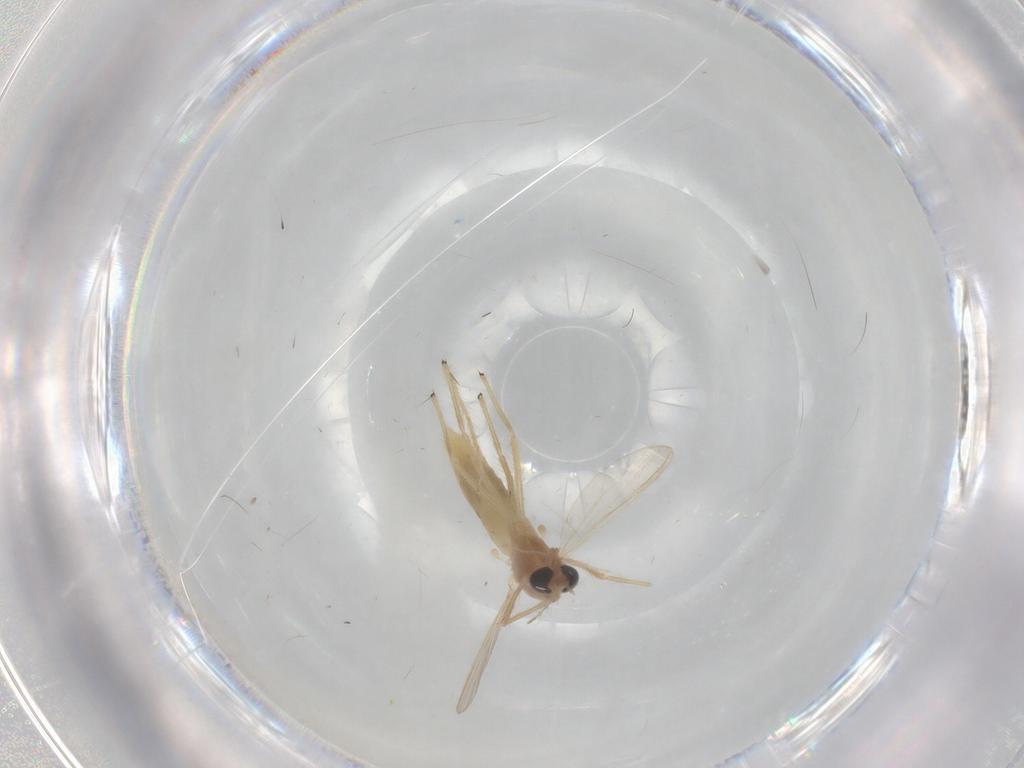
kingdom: Animalia
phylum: Arthropoda
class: Insecta
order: Diptera
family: Chironomidae
